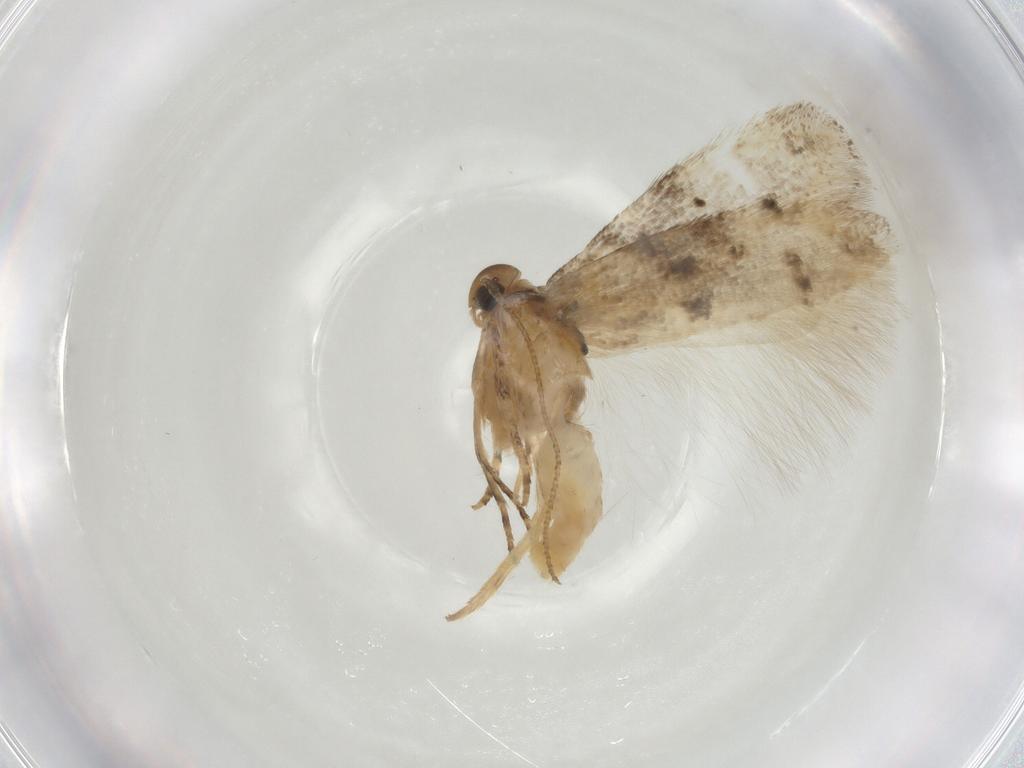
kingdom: Animalia
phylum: Arthropoda
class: Insecta
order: Lepidoptera
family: Gelechiidae
